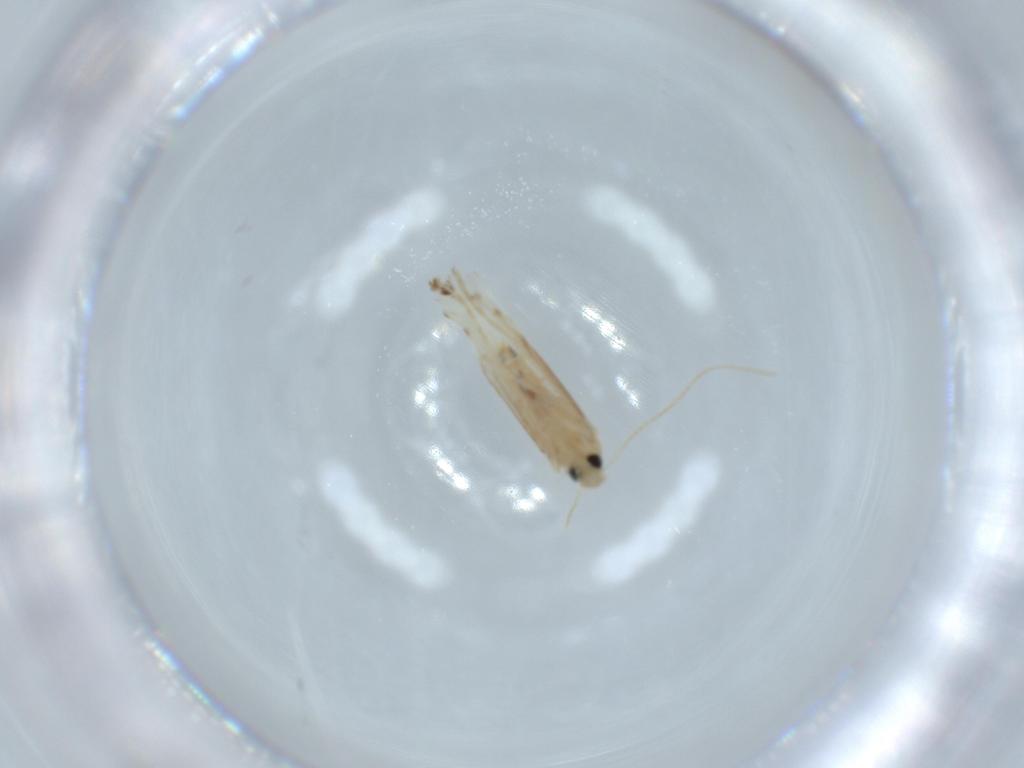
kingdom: Animalia
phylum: Arthropoda
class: Insecta
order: Lepidoptera
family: Gracillariidae
